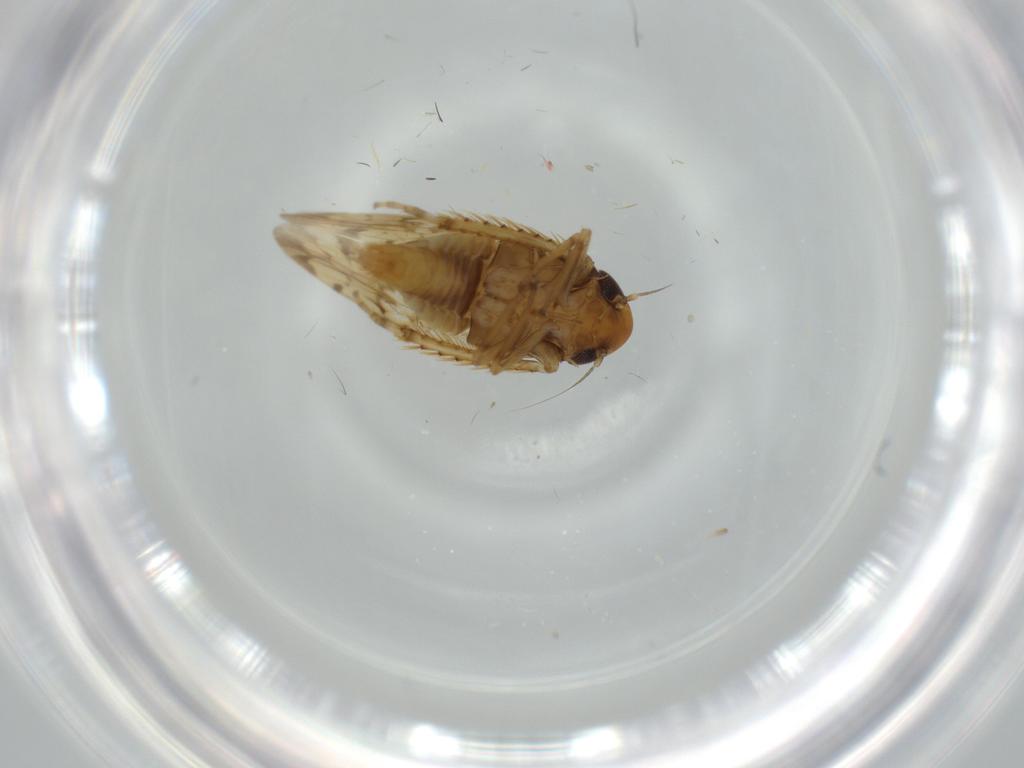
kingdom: Animalia
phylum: Arthropoda
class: Insecta
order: Hemiptera
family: Cicadellidae
